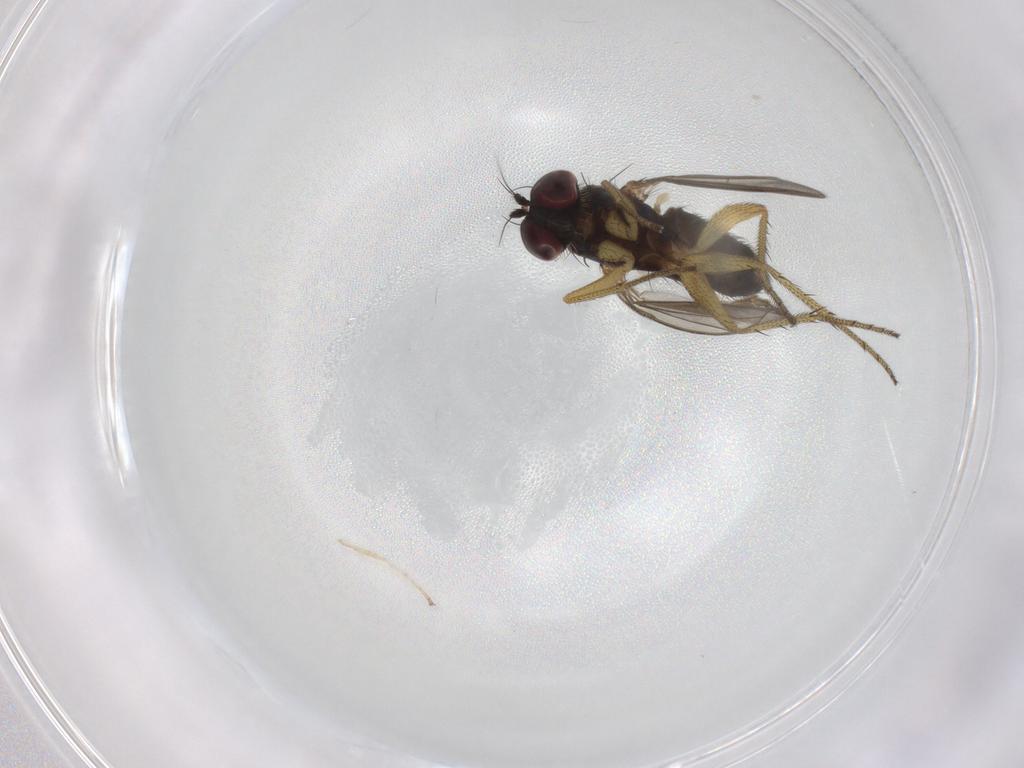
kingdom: Animalia
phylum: Arthropoda
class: Insecta
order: Diptera
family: Chironomidae
